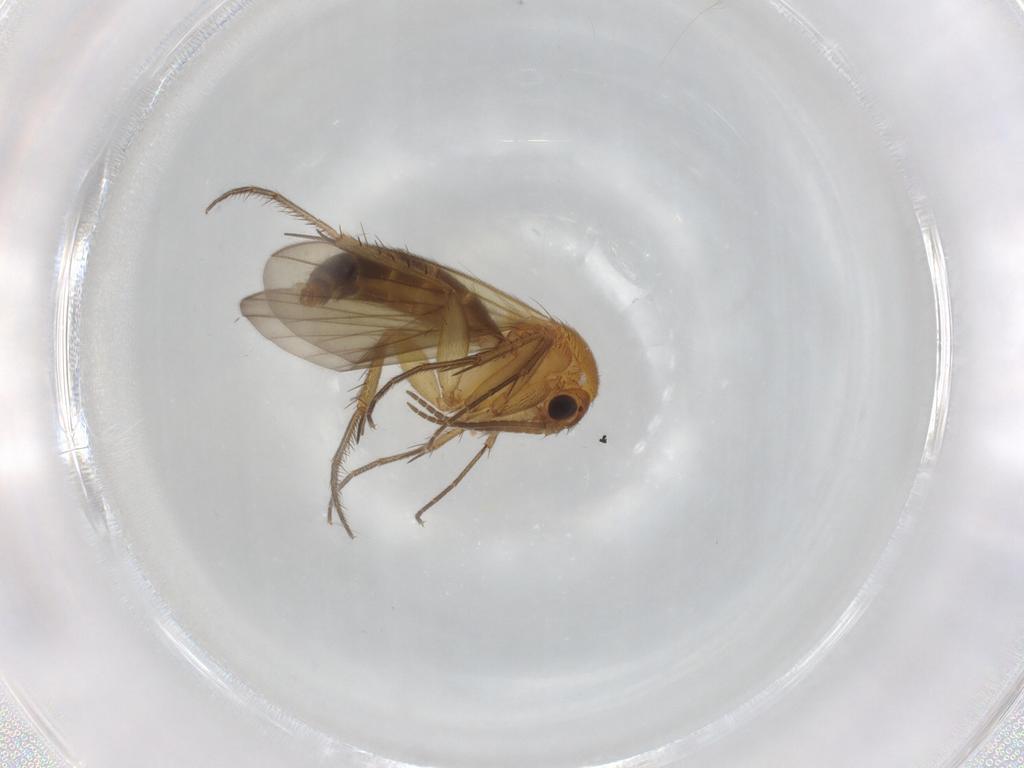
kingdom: Animalia
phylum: Arthropoda
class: Insecta
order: Diptera
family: Mycetophilidae
